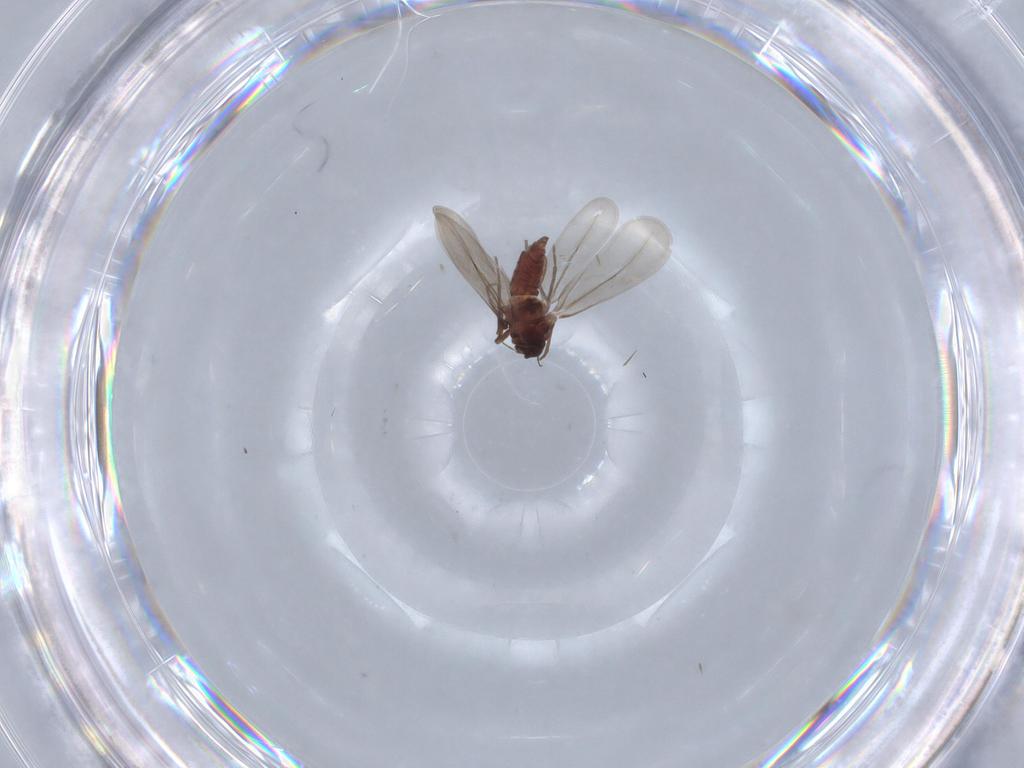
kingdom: Animalia
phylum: Arthropoda
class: Insecta
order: Hemiptera
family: Aleyrodidae
